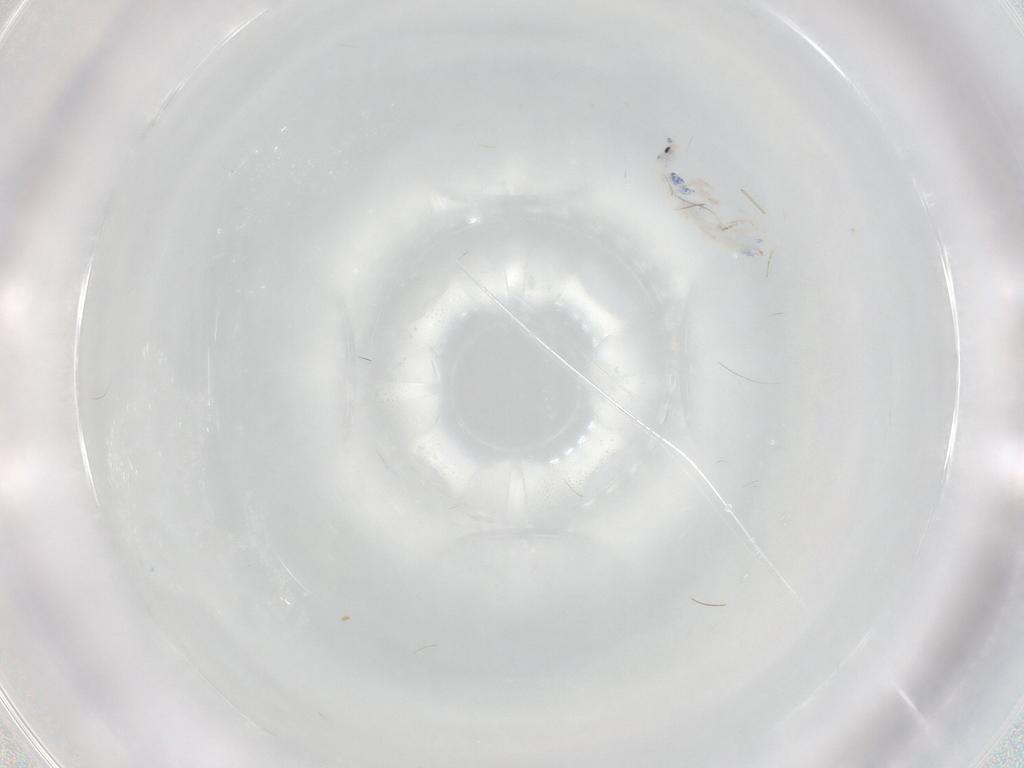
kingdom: Animalia
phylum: Arthropoda
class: Collembola
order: Entomobryomorpha
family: Entomobryidae
